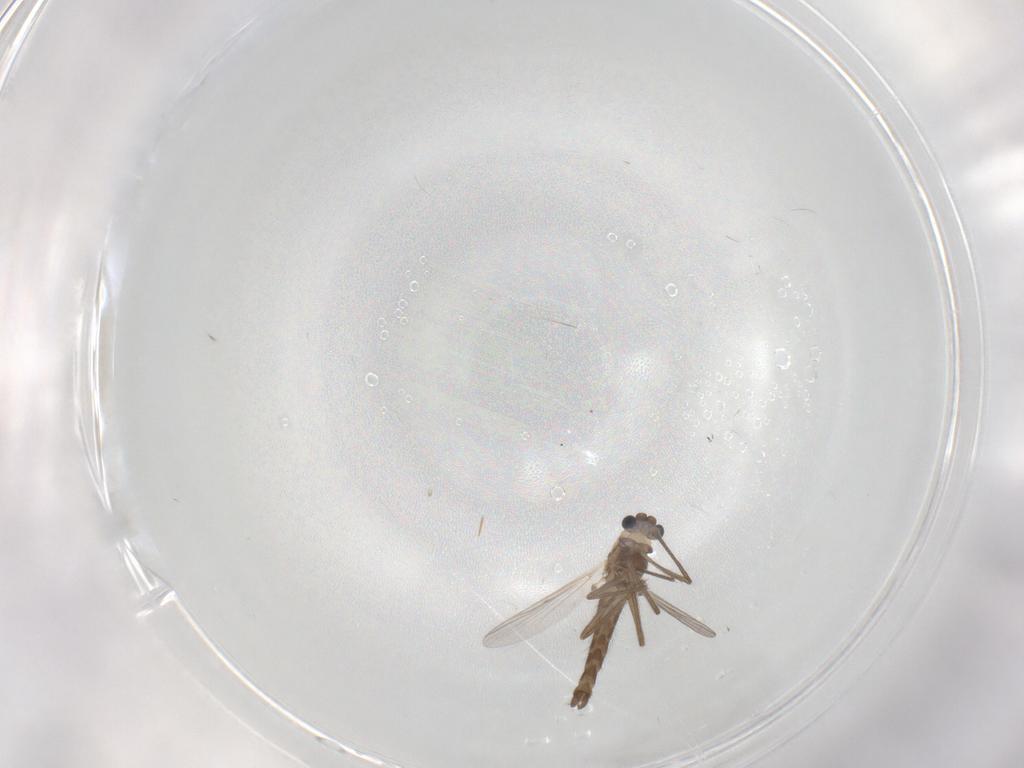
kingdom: Animalia
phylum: Arthropoda
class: Insecta
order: Diptera
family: Chironomidae
